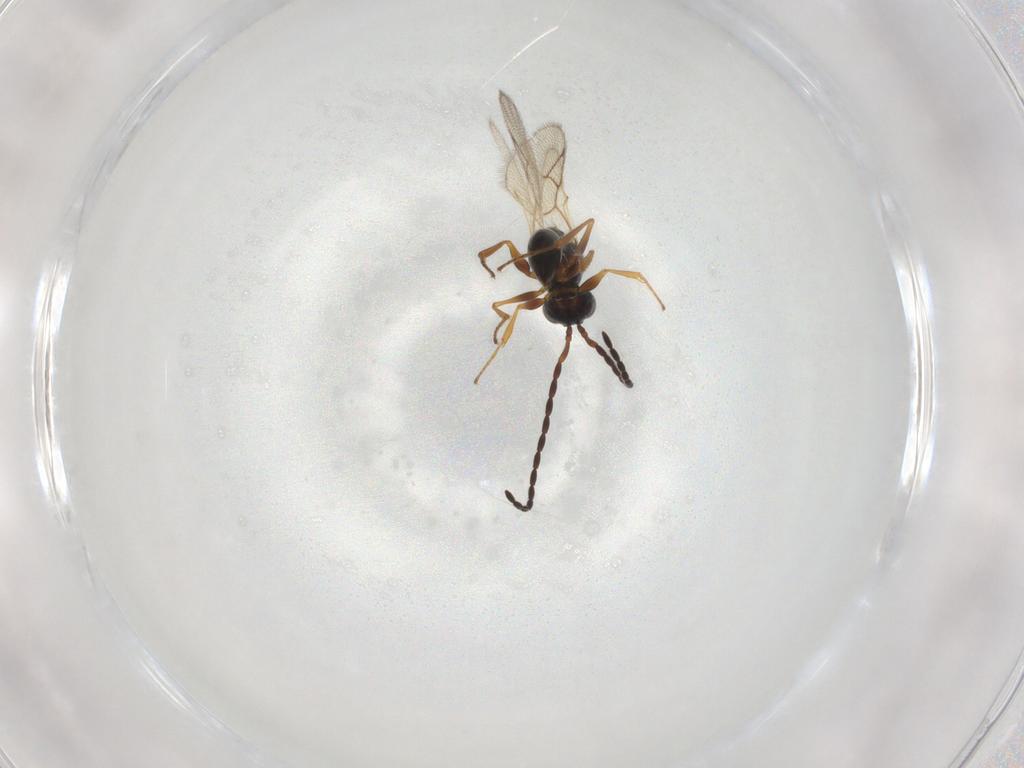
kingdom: Animalia
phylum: Arthropoda
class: Insecta
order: Hymenoptera
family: Figitidae
